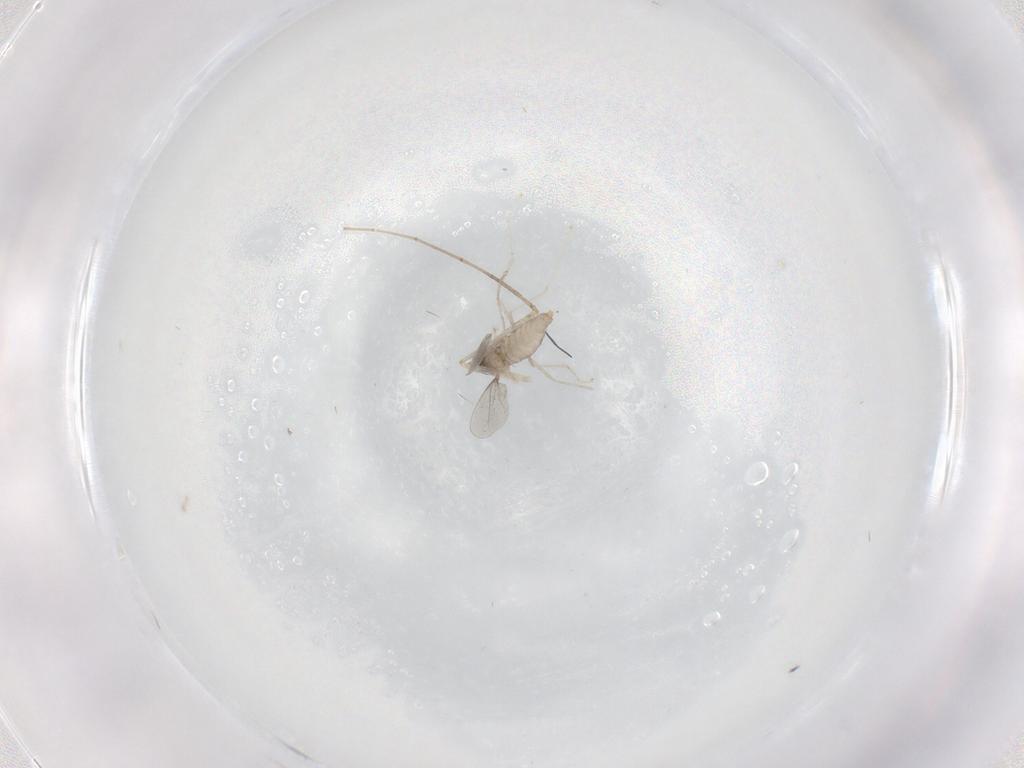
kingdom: Animalia
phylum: Arthropoda
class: Insecta
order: Diptera
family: Cecidomyiidae
